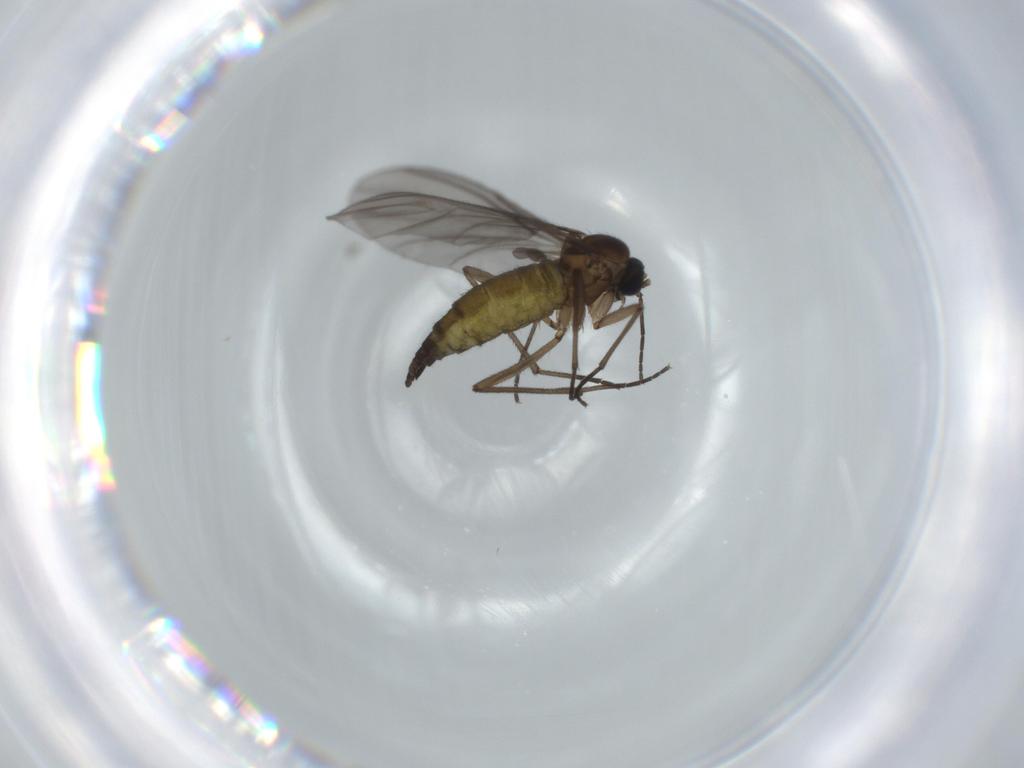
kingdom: Animalia
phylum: Arthropoda
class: Insecta
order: Diptera
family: Sciaridae
